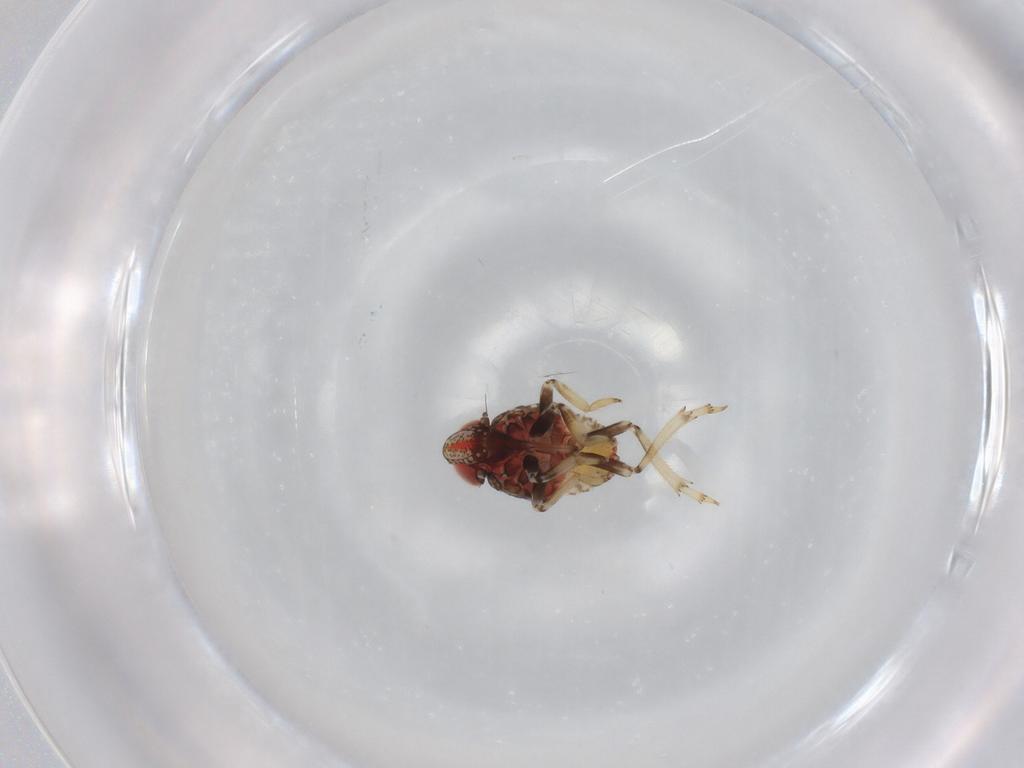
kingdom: Animalia
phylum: Arthropoda
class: Insecta
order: Hemiptera
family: Issidae
